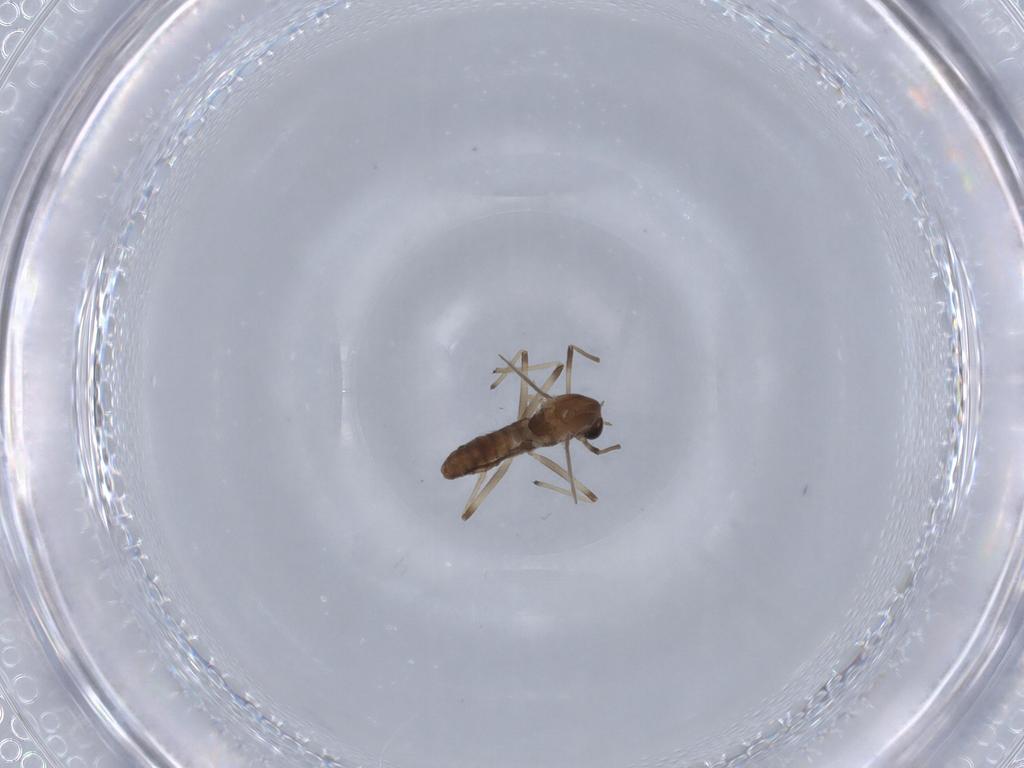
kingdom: Animalia
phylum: Arthropoda
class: Insecta
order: Diptera
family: Chironomidae
